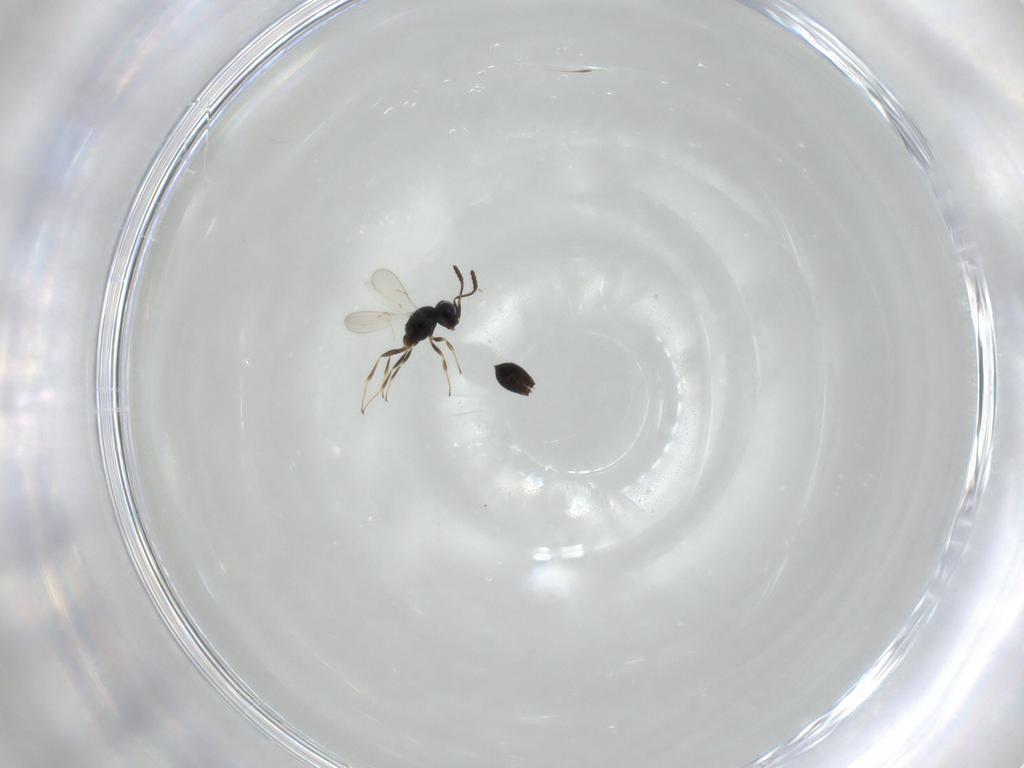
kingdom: Animalia
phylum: Arthropoda
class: Insecta
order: Hymenoptera
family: Scelionidae
